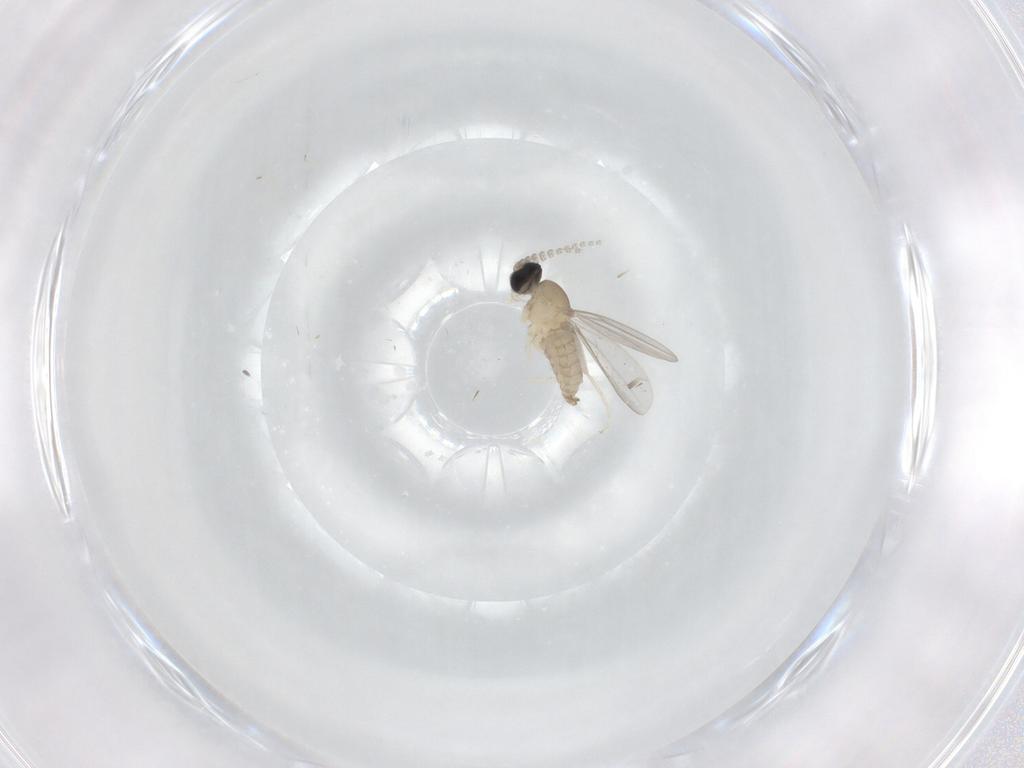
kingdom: Animalia
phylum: Arthropoda
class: Insecta
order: Diptera
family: Cecidomyiidae
